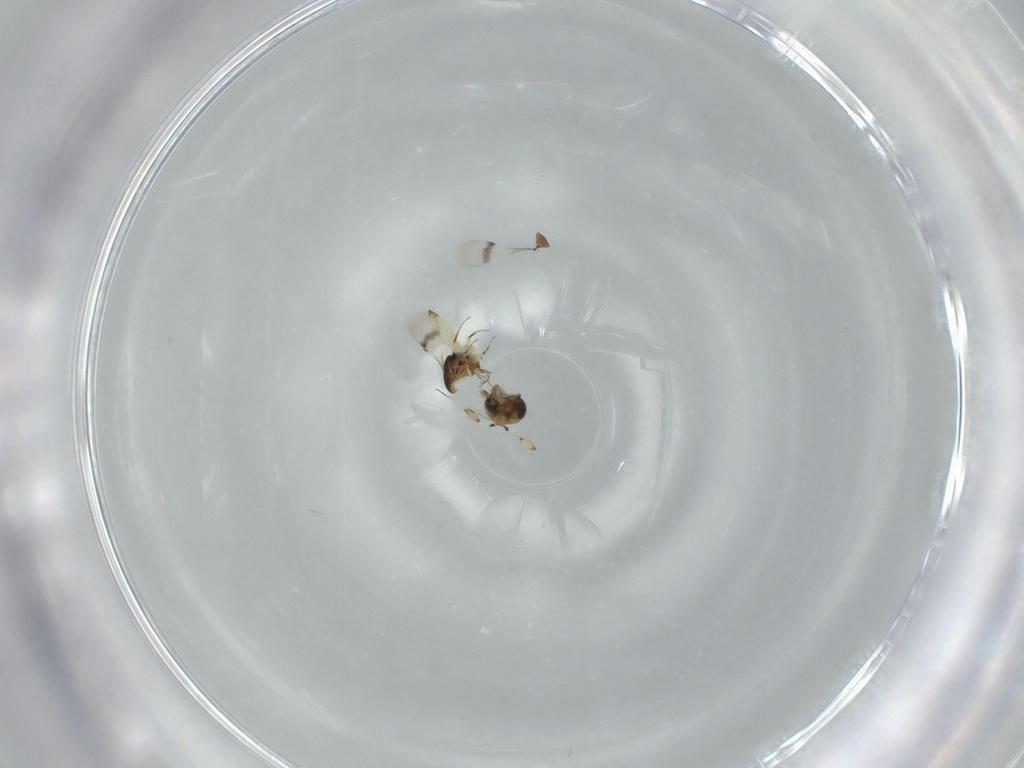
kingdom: Animalia
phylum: Arthropoda
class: Insecta
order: Hymenoptera
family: Scelionidae
